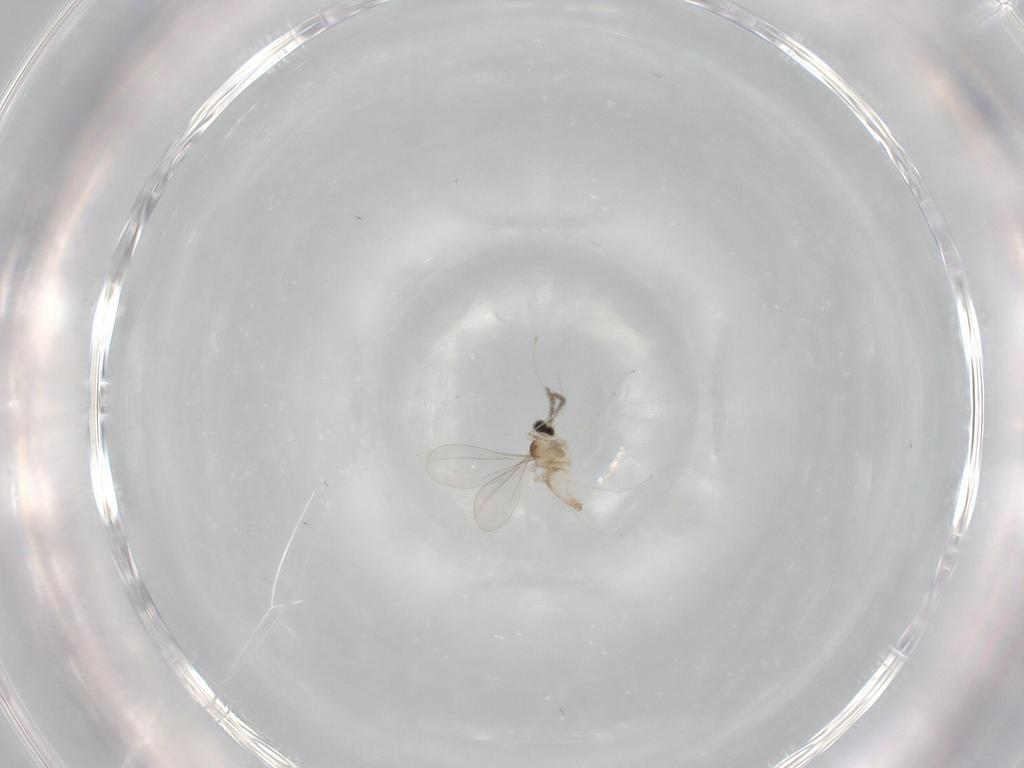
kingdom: Animalia
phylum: Arthropoda
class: Insecta
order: Diptera
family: Cecidomyiidae
